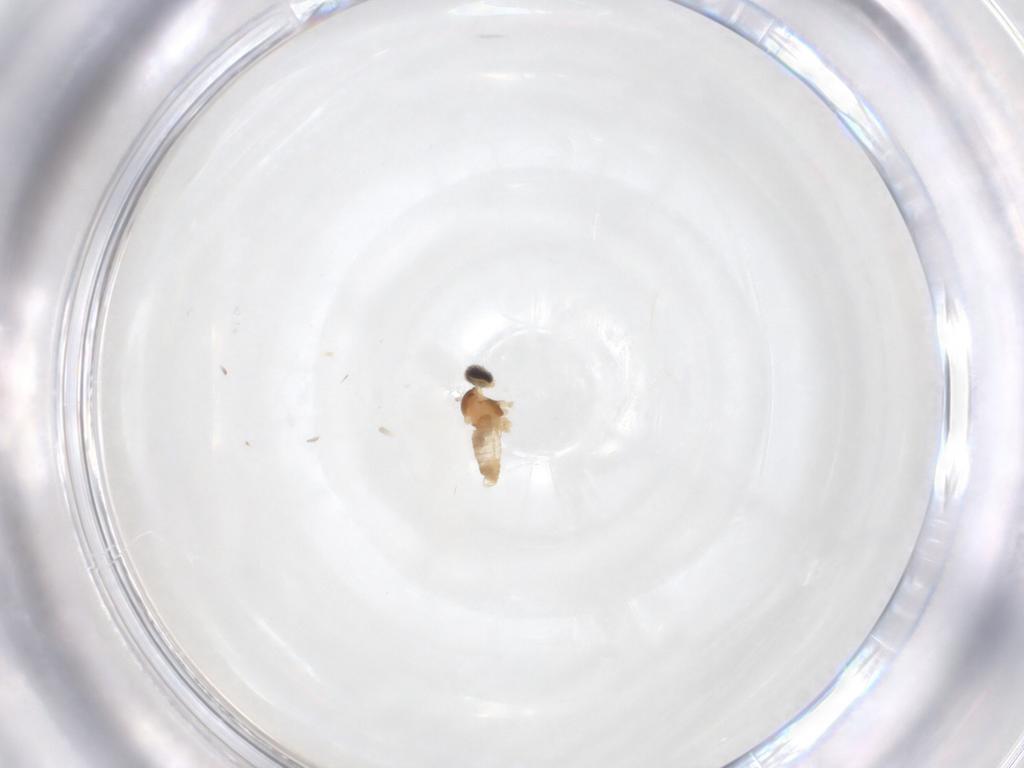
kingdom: Animalia
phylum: Arthropoda
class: Insecta
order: Diptera
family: Cecidomyiidae
